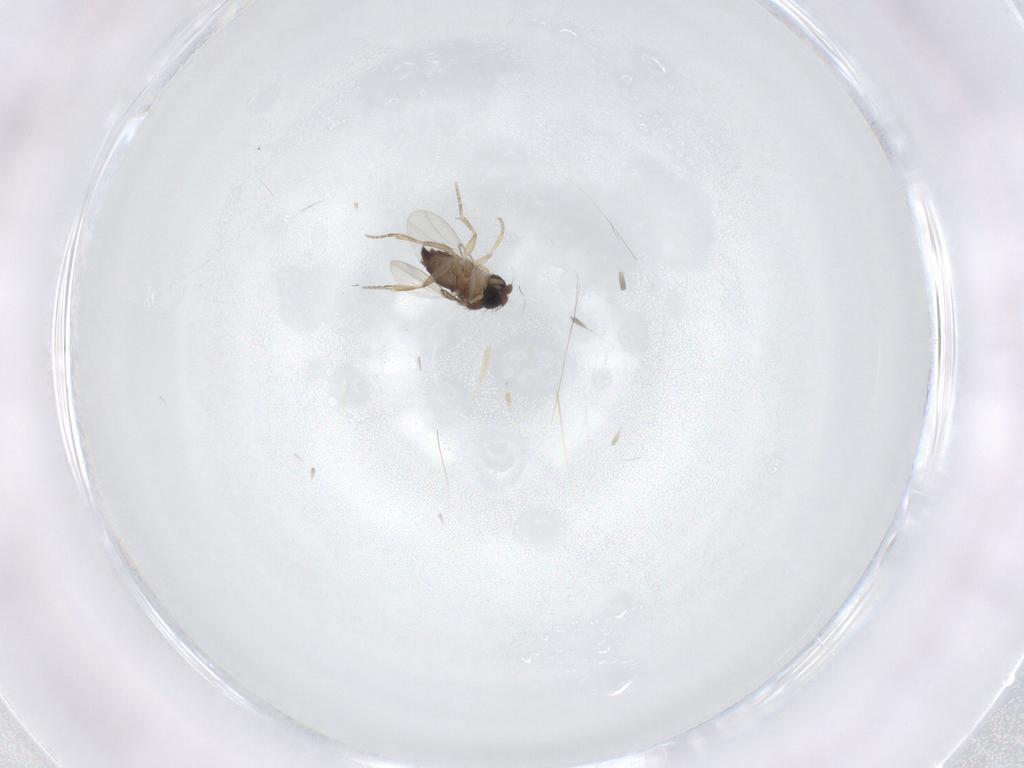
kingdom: Animalia
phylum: Arthropoda
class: Insecta
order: Diptera
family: Phoridae
